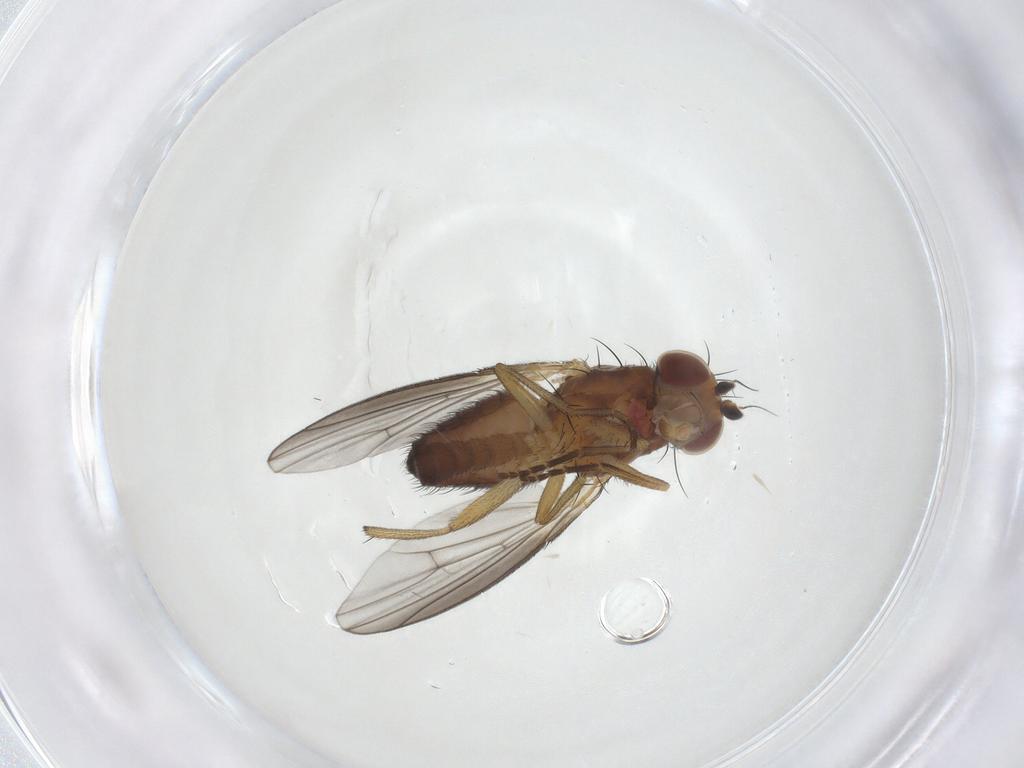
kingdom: Animalia
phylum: Arthropoda
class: Insecta
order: Diptera
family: Heleomyzidae
